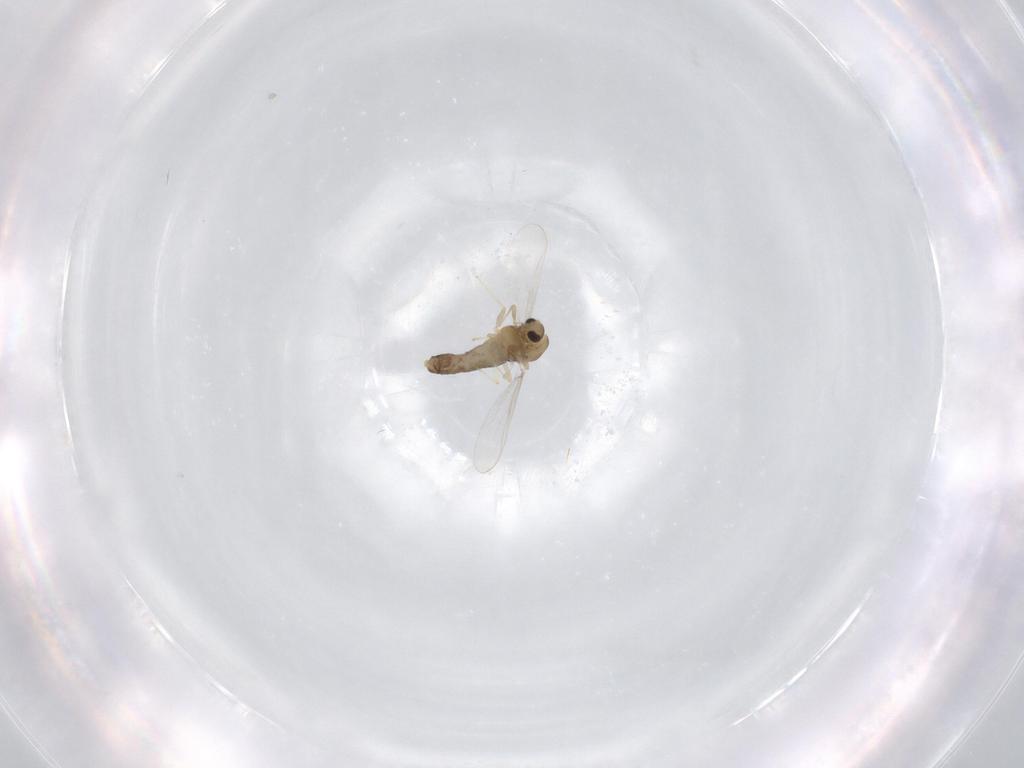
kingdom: Animalia
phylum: Arthropoda
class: Insecta
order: Diptera
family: Chironomidae
